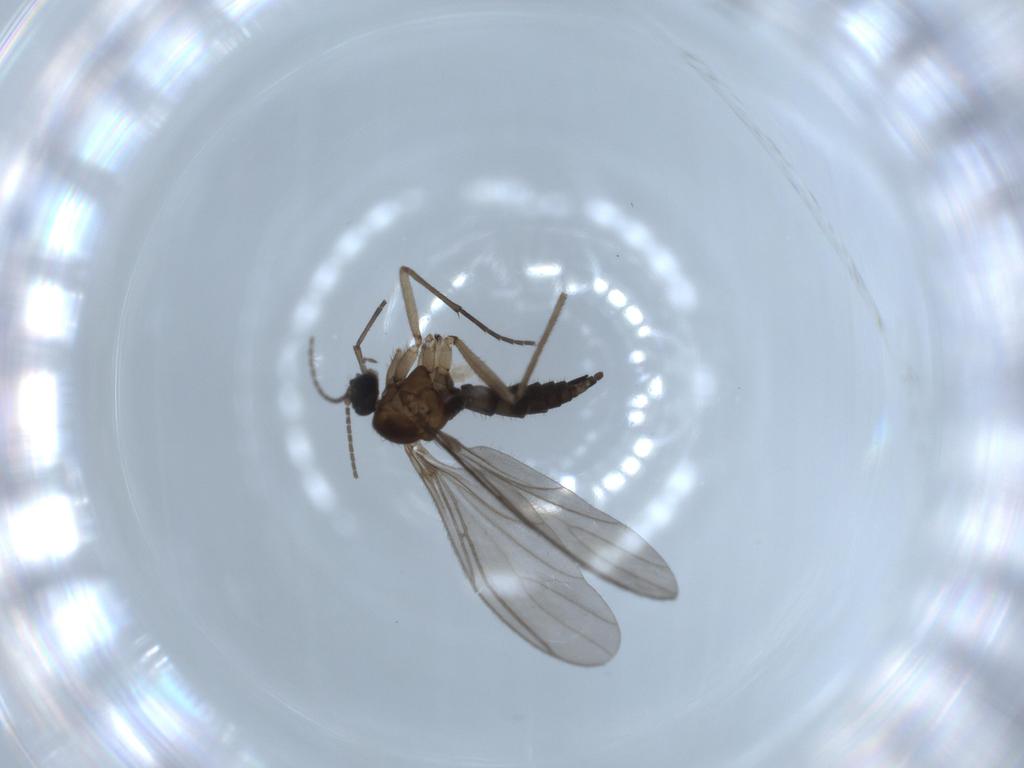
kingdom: Animalia
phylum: Arthropoda
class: Insecta
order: Diptera
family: Sciaridae
